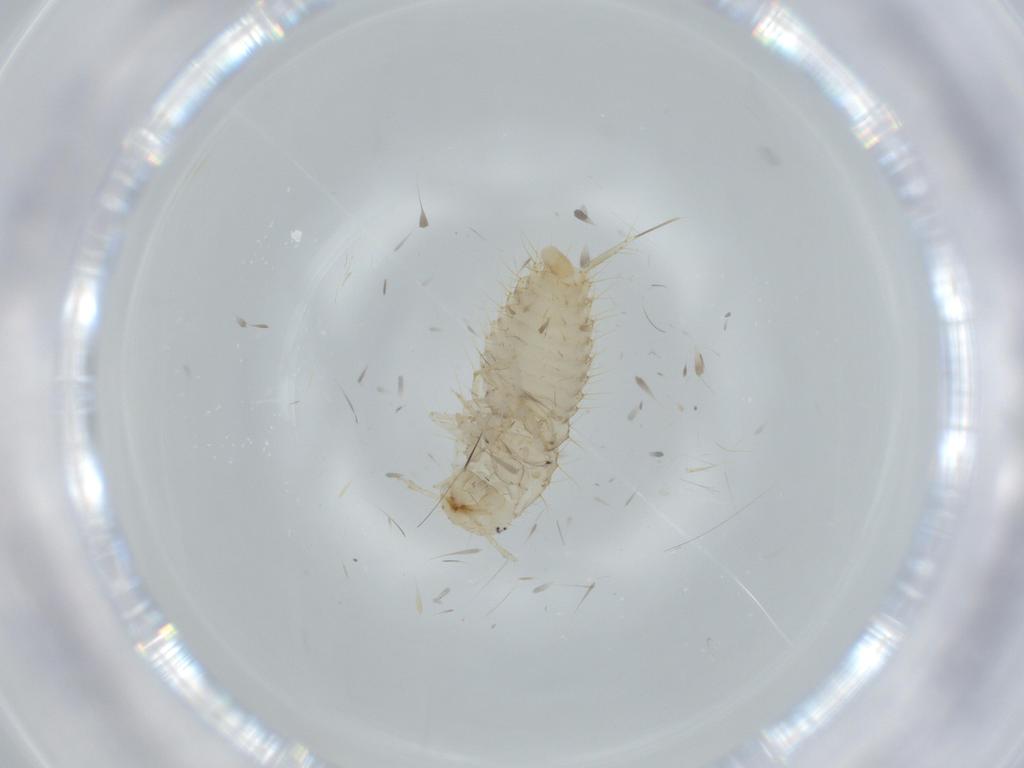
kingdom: Animalia
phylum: Arthropoda
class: Insecta
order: Coleoptera
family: Staphylinidae
